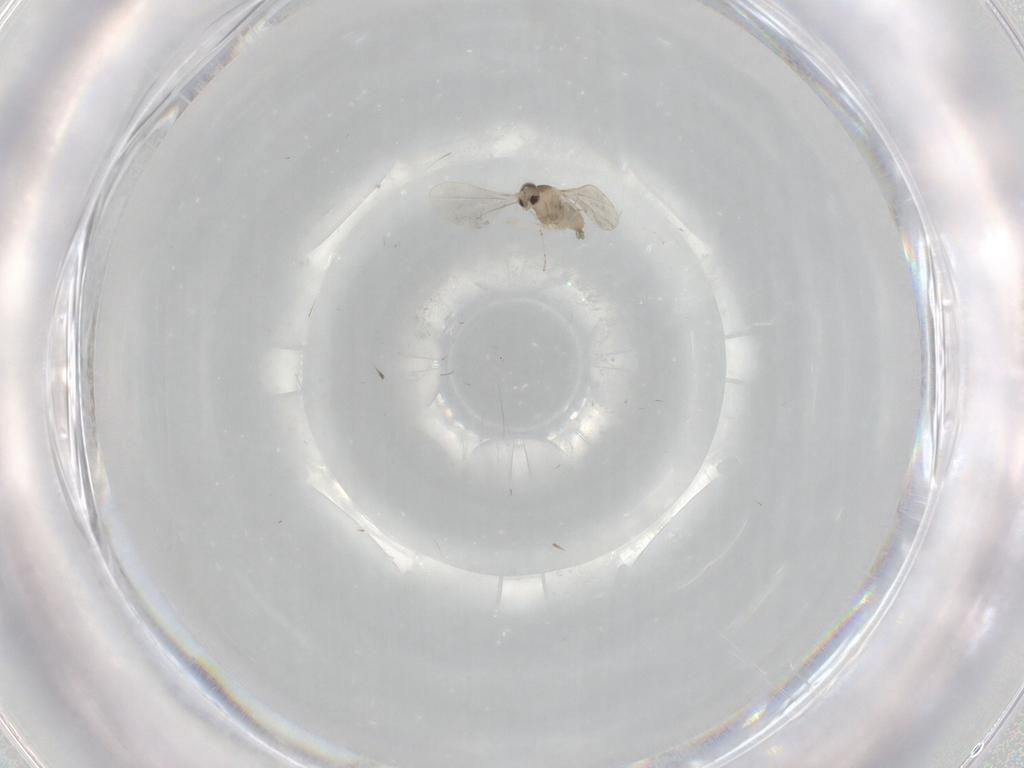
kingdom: Animalia
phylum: Arthropoda
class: Insecta
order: Diptera
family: Cecidomyiidae
